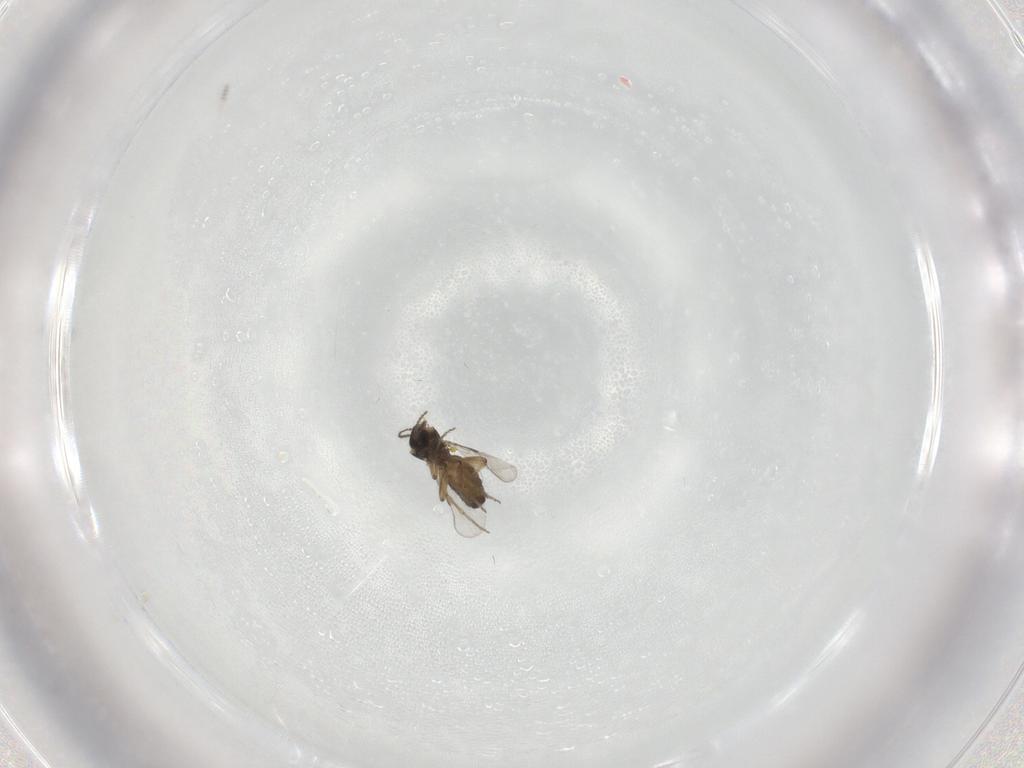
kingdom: Animalia
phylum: Arthropoda
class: Insecta
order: Diptera
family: Ceratopogonidae
